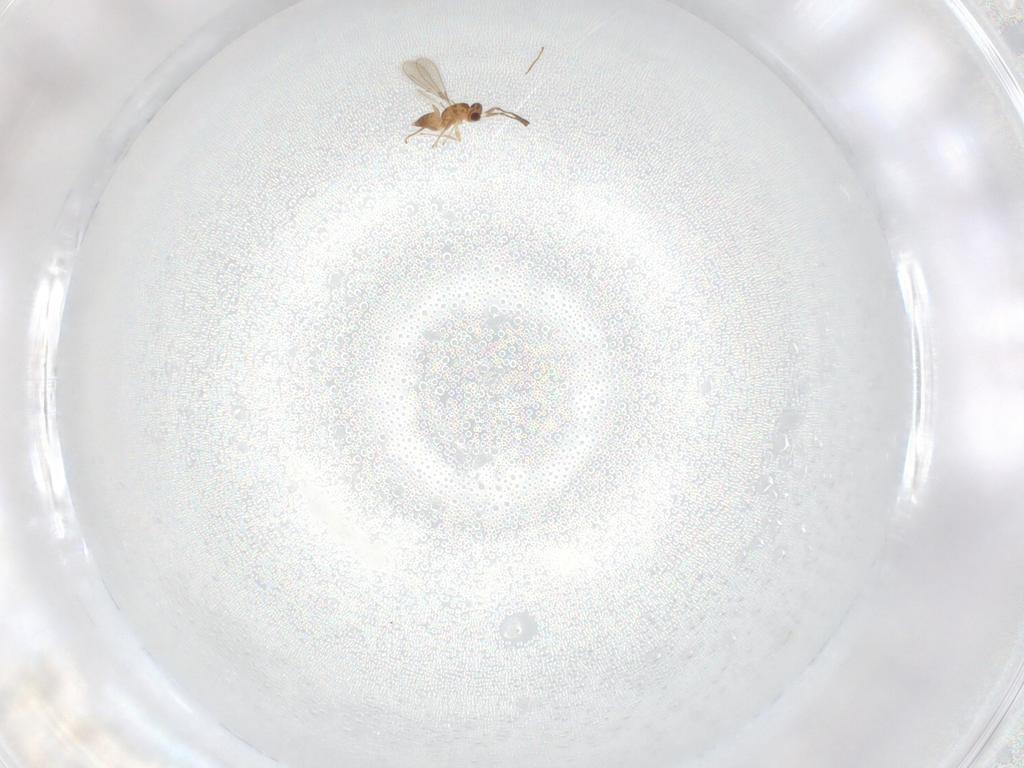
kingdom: Animalia
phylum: Arthropoda
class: Insecta
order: Hymenoptera
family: Mymaridae
